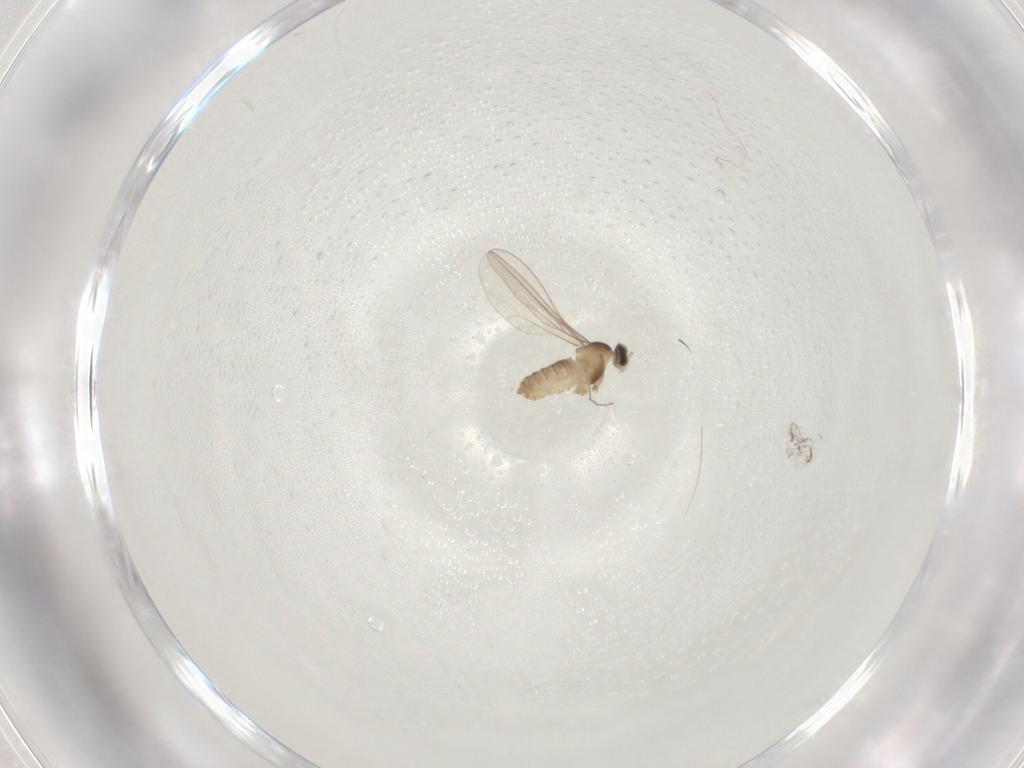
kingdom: Animalia
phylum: Arthropoda
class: Insecta
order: Diptera
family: Cecidomyiidae
